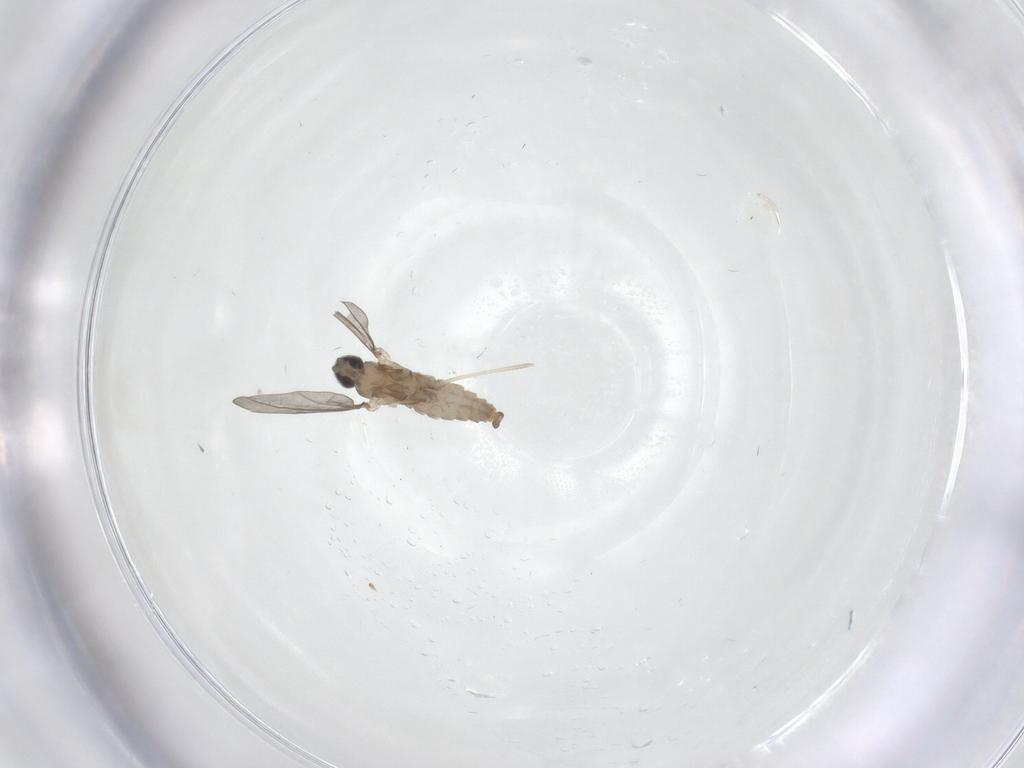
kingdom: Animalia
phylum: Arthropoda
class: Insecta
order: Diptera
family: Cecidomyiidae
